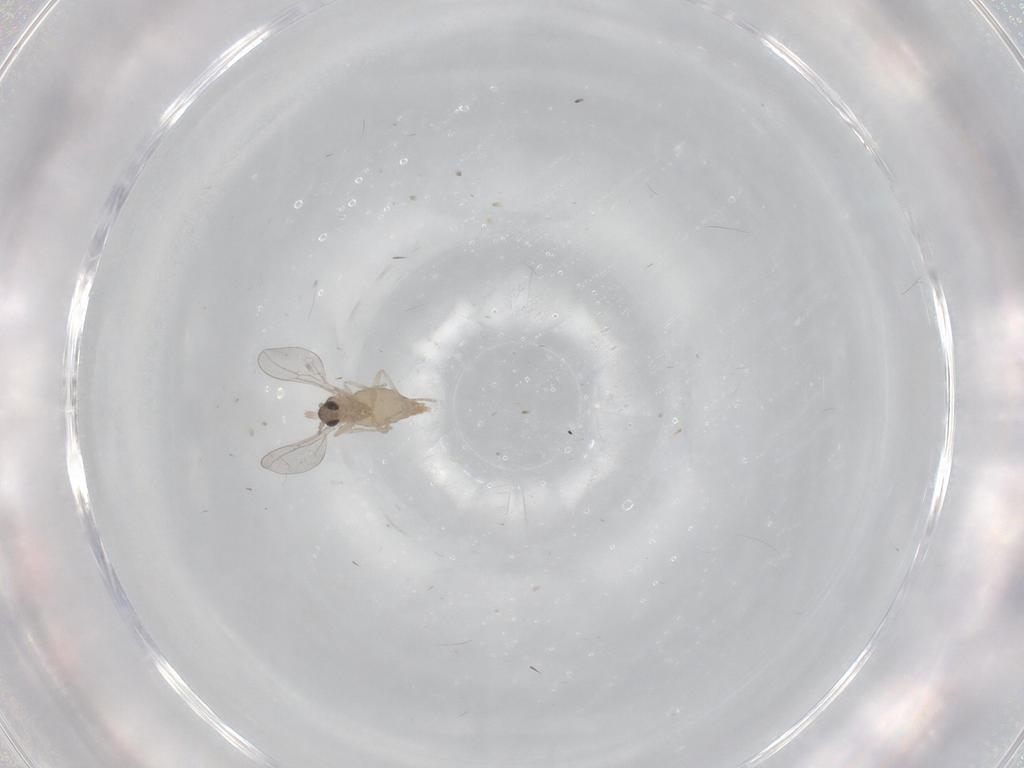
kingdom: Animalia
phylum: Arthropoda
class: Insecta
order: Diptera
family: Cecidomyiidae
